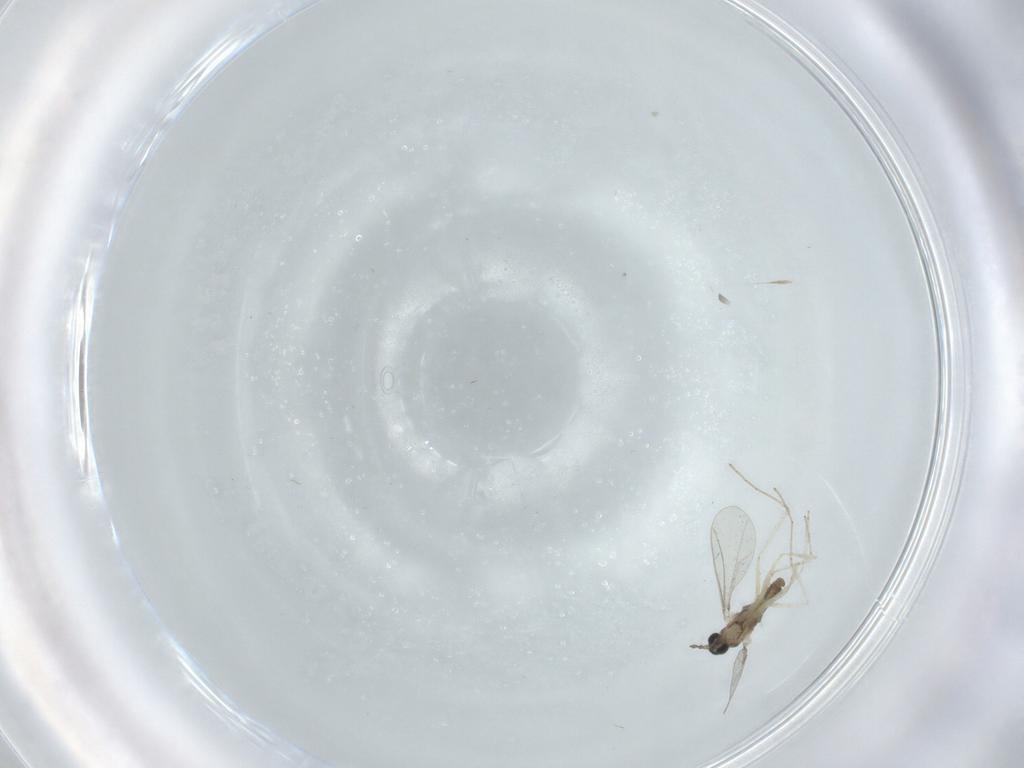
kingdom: Animalia
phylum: Arthropoda
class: Insecta
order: Diptera
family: Cecidomyiidae
